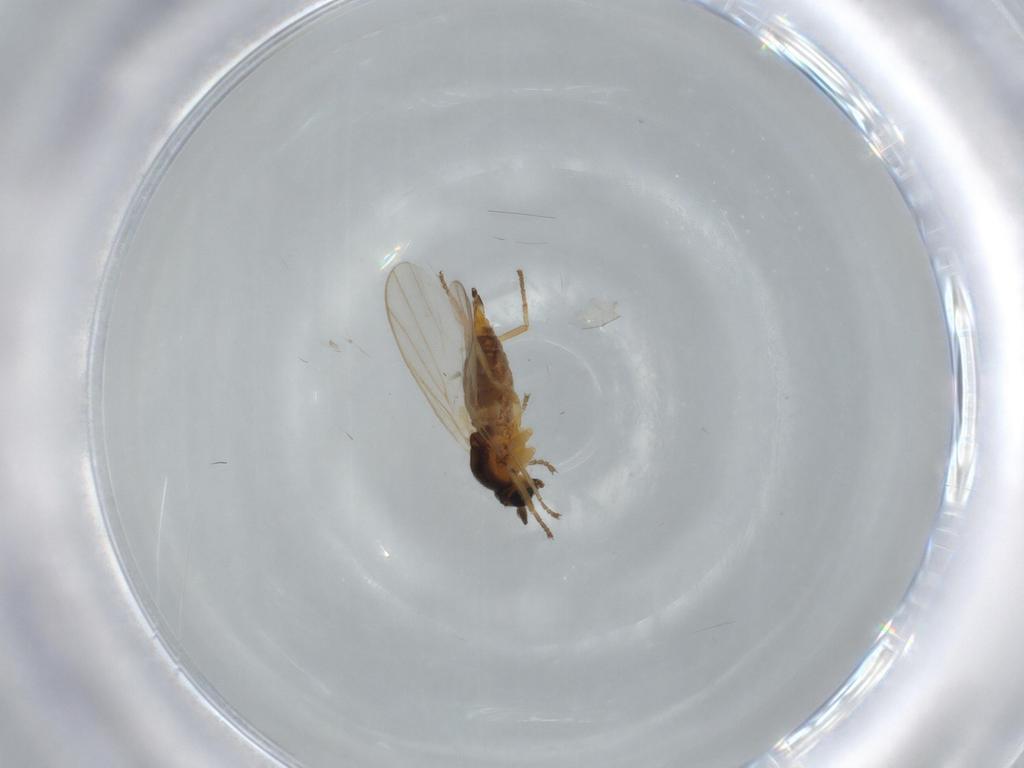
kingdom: Animalia
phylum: Arthropoda
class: Insecta
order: Diptera
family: Hybotidae
